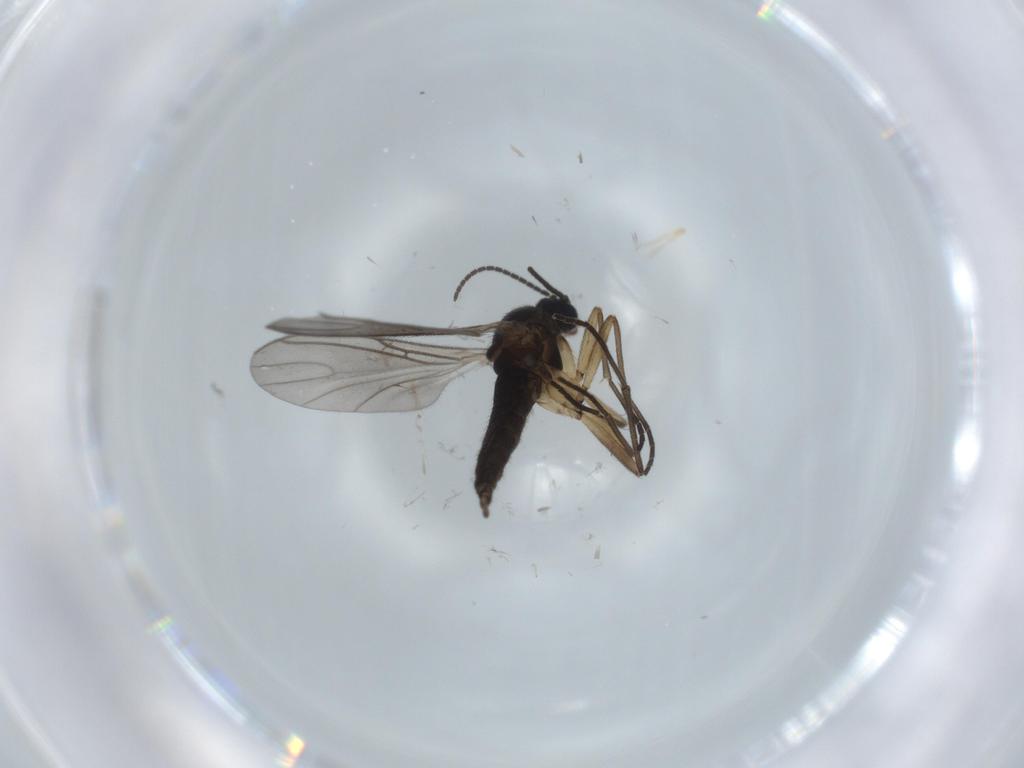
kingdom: Animalia
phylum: Arthropoda
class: Insecta
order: Diptera
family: Sciaridae
